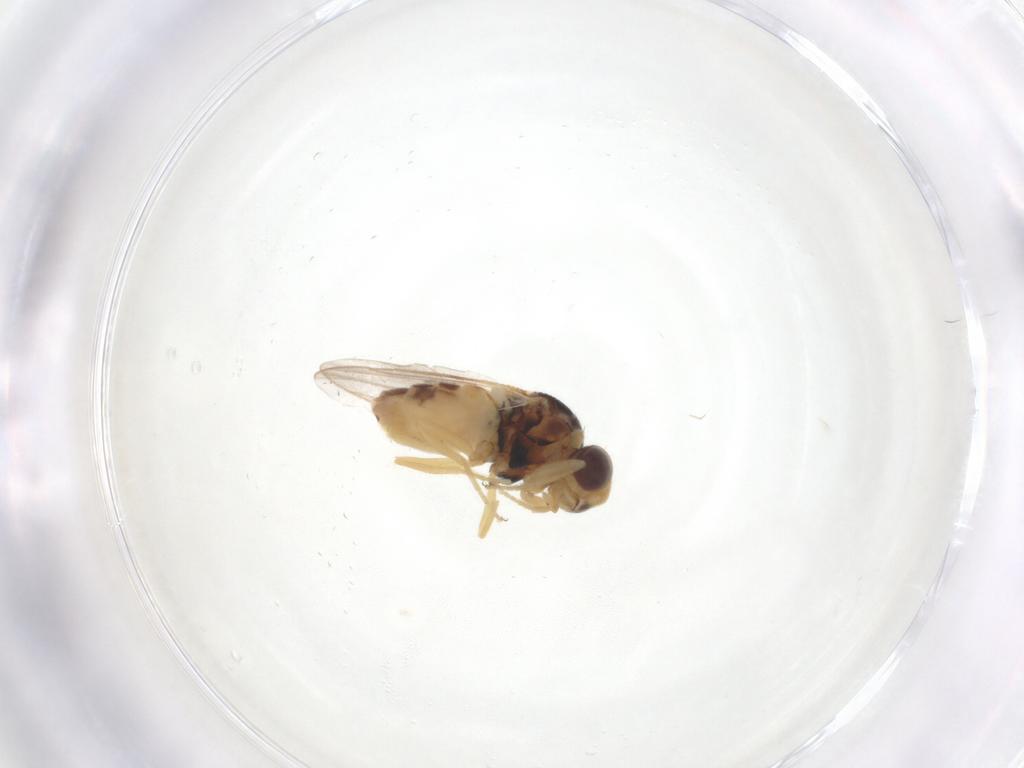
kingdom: Animalia
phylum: Arthropoda
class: Insecta
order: Diptera
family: Chloropidae
